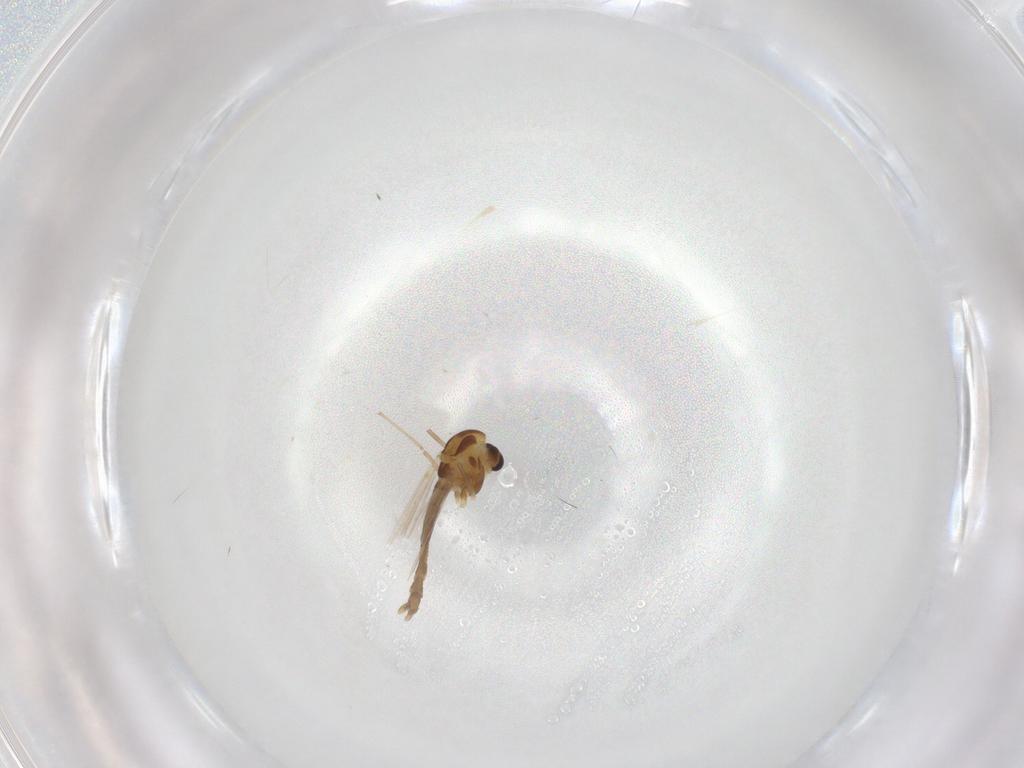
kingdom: Animalia
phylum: Arthropoda
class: Insecta
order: Diptera
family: Chironomidae
